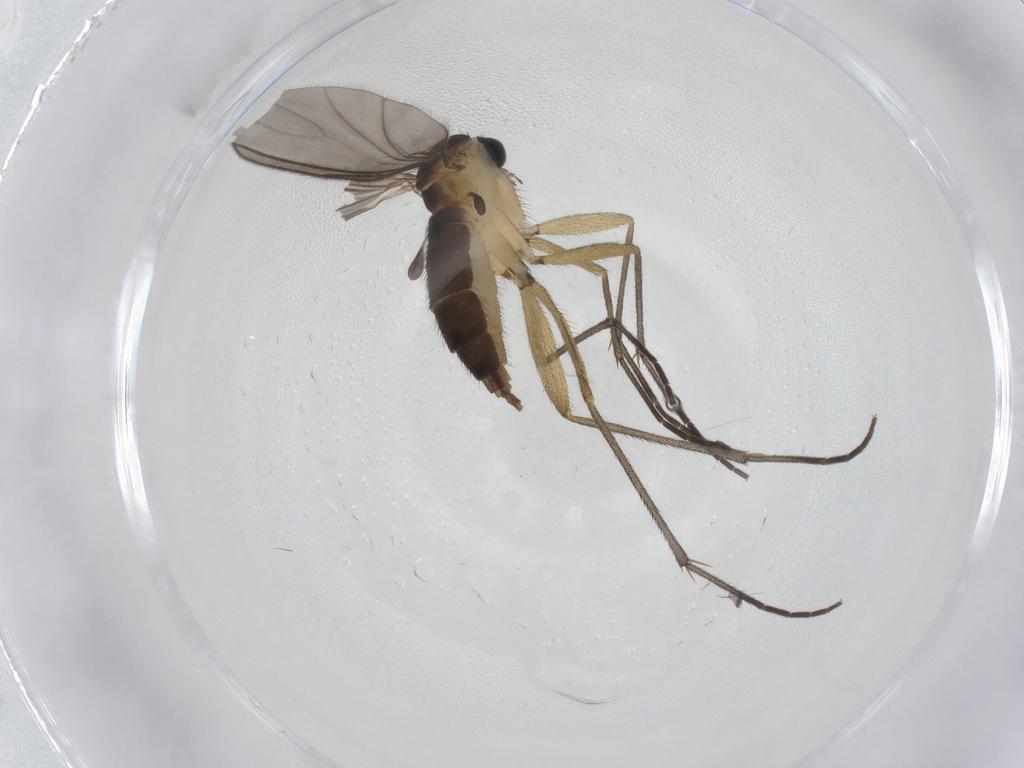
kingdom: Animalia
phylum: Arthropoda
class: Insecta
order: Diptera
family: Sciaridae
